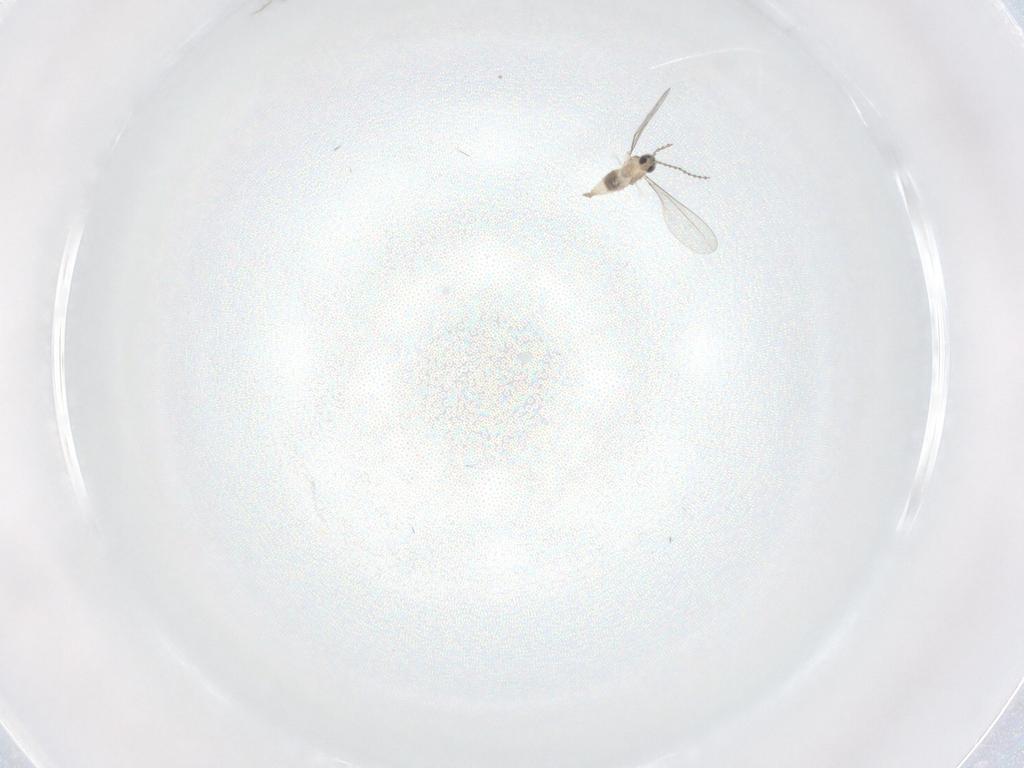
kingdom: Animalia
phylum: Arthropoda
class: Insecta
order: Diptera
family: Cecidomyiidae
